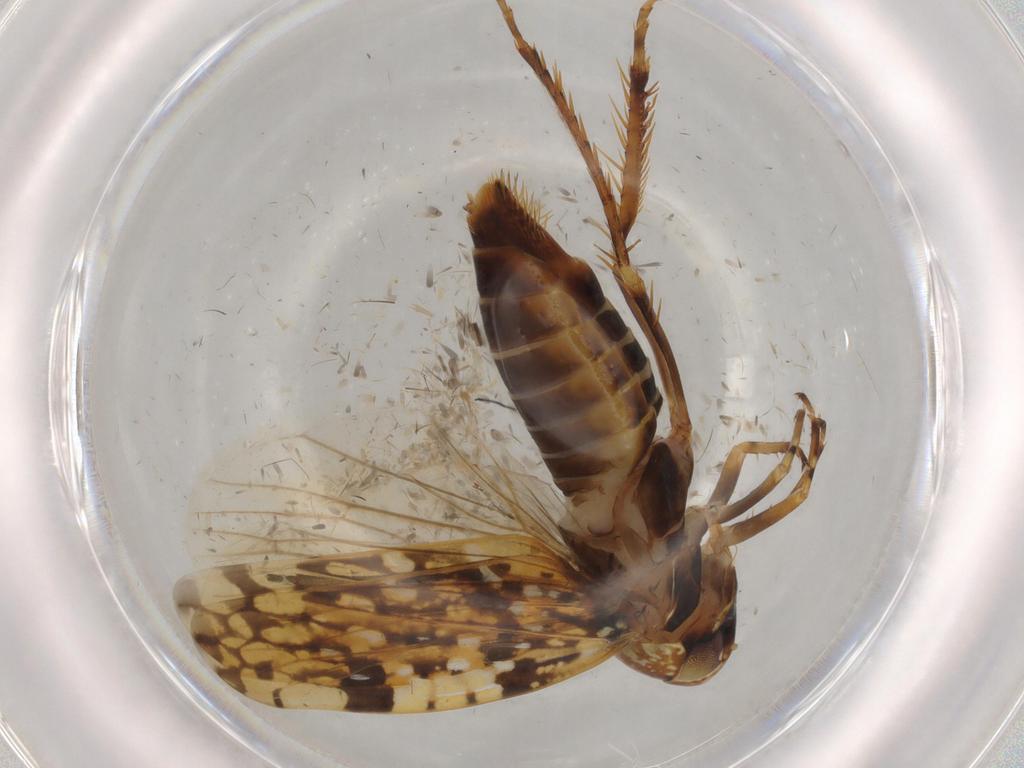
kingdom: Animalia
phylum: Arthropoda
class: Insecta
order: Hemiptera
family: Cicadellidae
